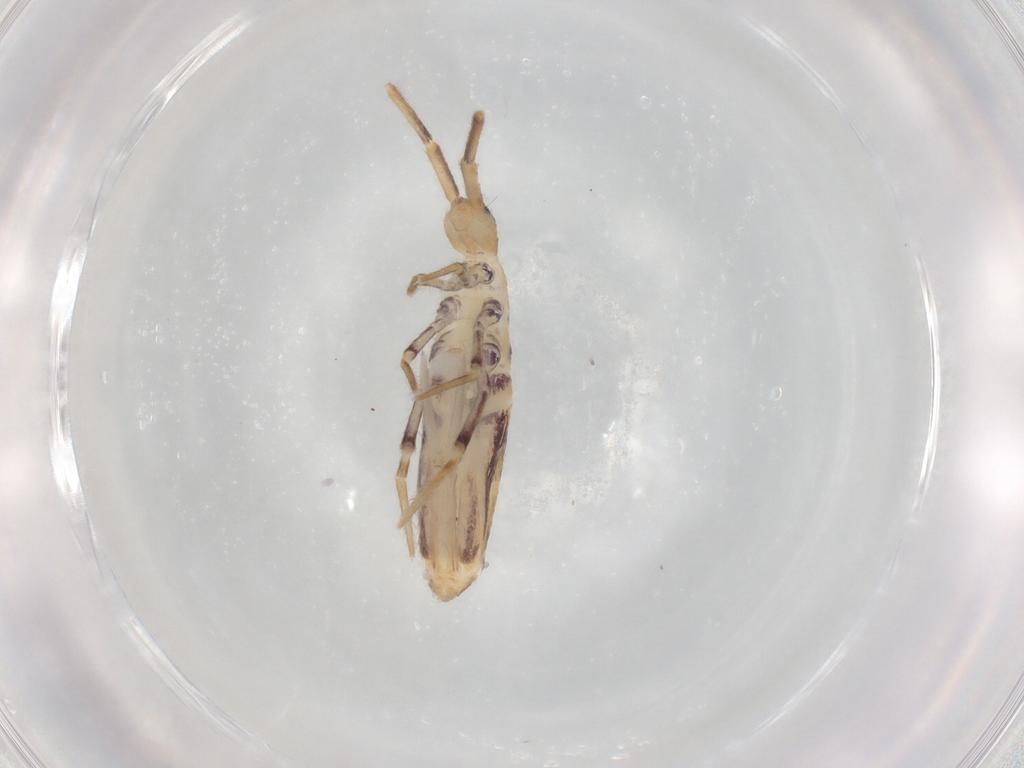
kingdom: Animalia
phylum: Arthropoda
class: Collembola
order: Poduromorpha
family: Hypogastruridae
